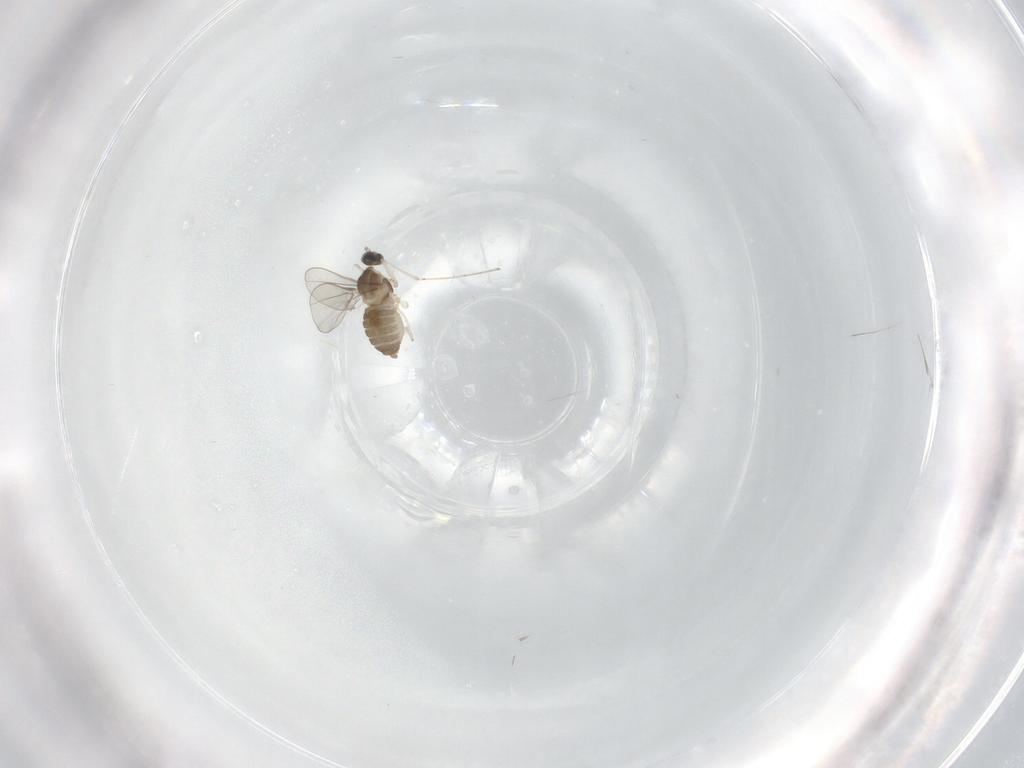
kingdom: Animalia
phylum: Arthropoda
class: Insecta
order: Diptera
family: Cecidomyiidae
